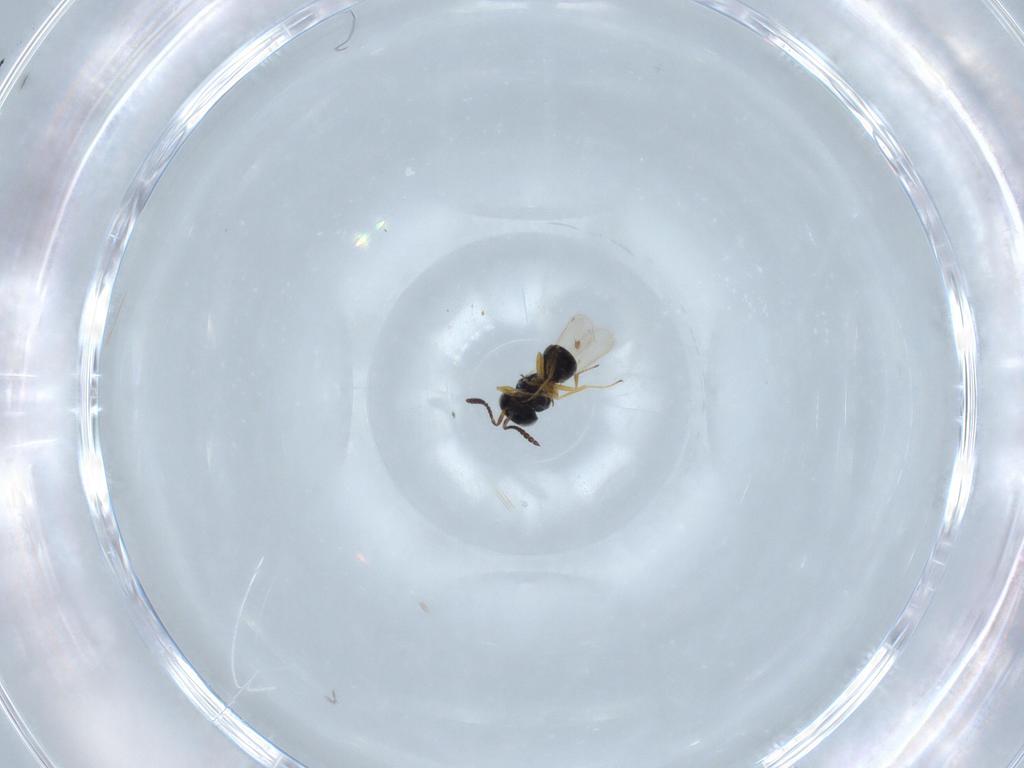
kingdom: Animalia
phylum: Arthropoda
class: Insecta
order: Hymenoptera
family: Scelionidae
